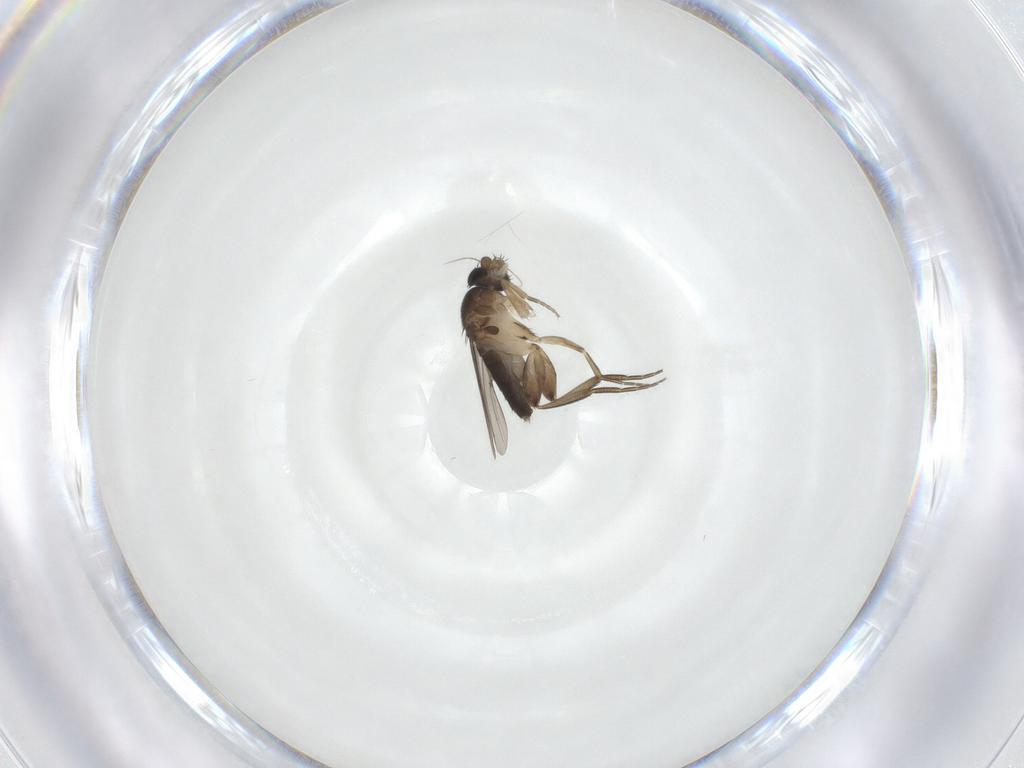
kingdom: Animalia
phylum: Arthropoda
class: Insecta
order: Diptera
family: Phoridae
